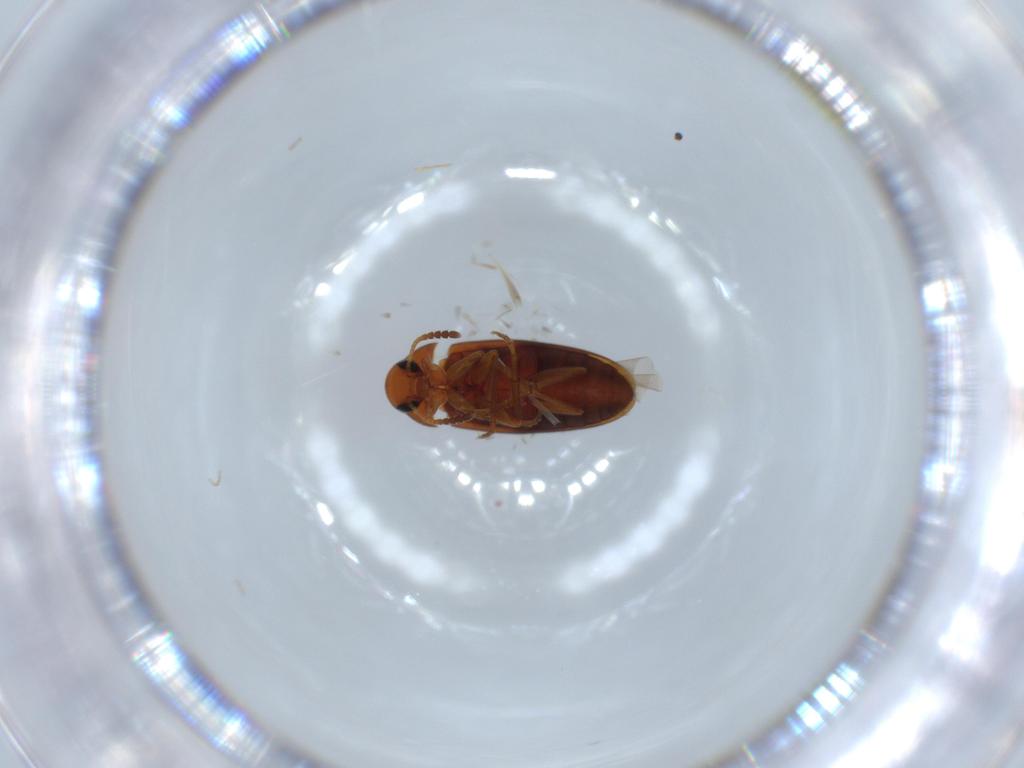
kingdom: Animalia
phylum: Arthropoda
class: Insecta
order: Coleoptera
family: Scraptiidae
